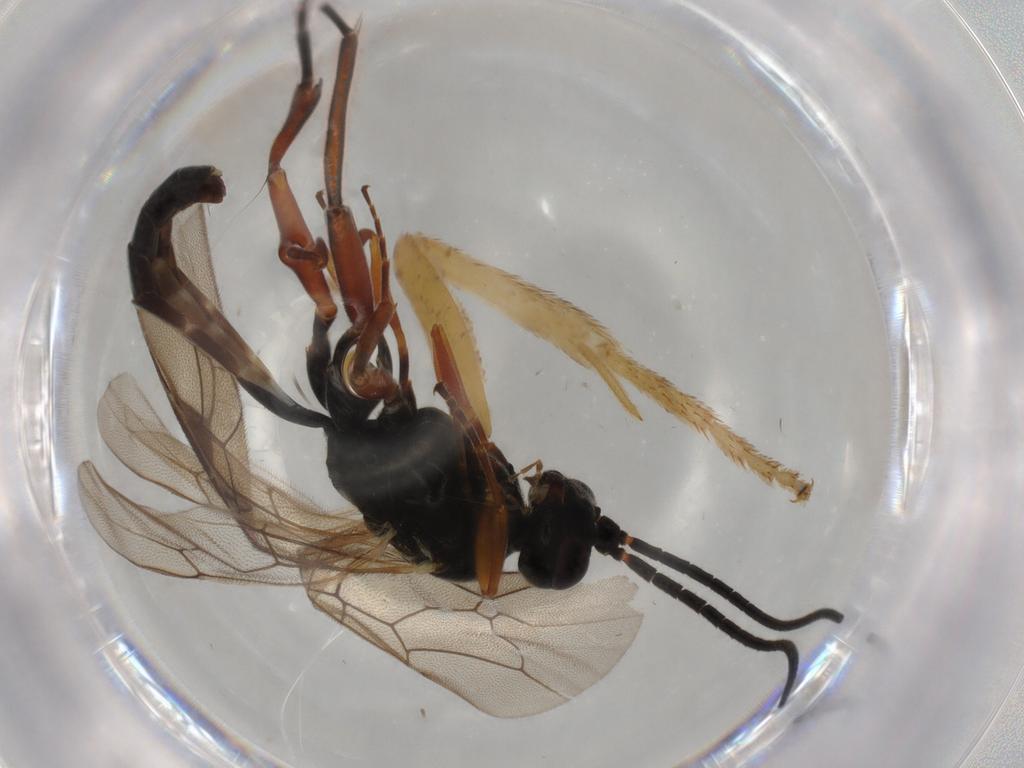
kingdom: Animalia
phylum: Arthropoda
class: Insecta
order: Hymenoptera
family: Ichneumonidae
